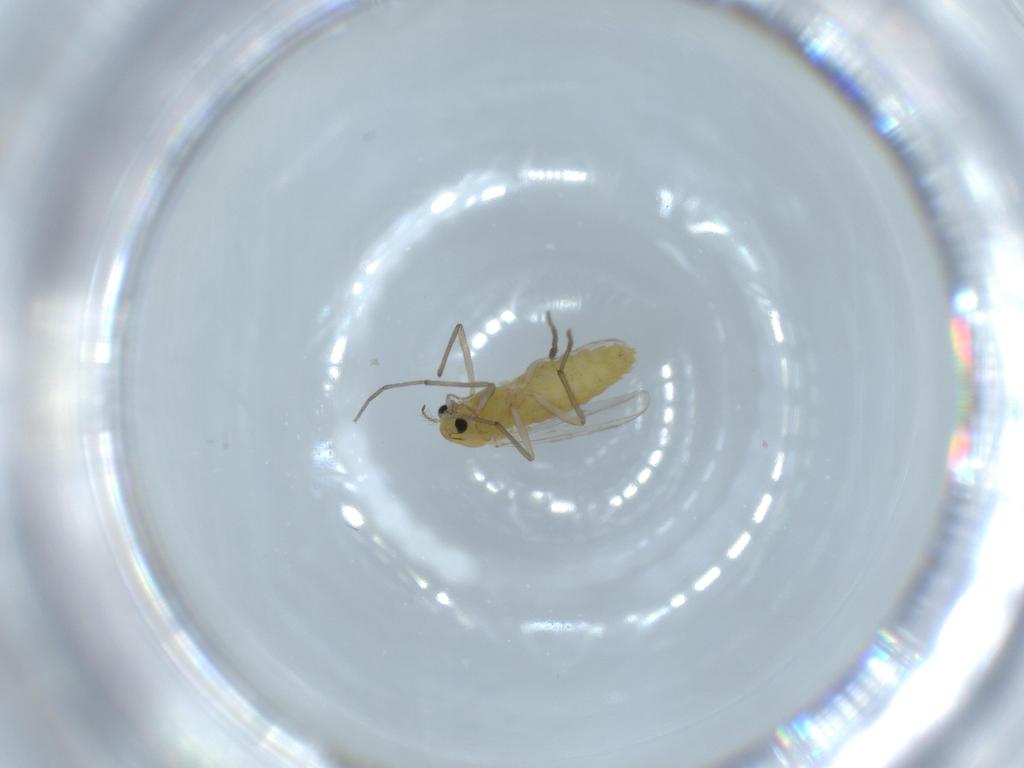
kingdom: Animalia
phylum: Arthropoda
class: Insecta
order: Diptera
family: Chironomidae
